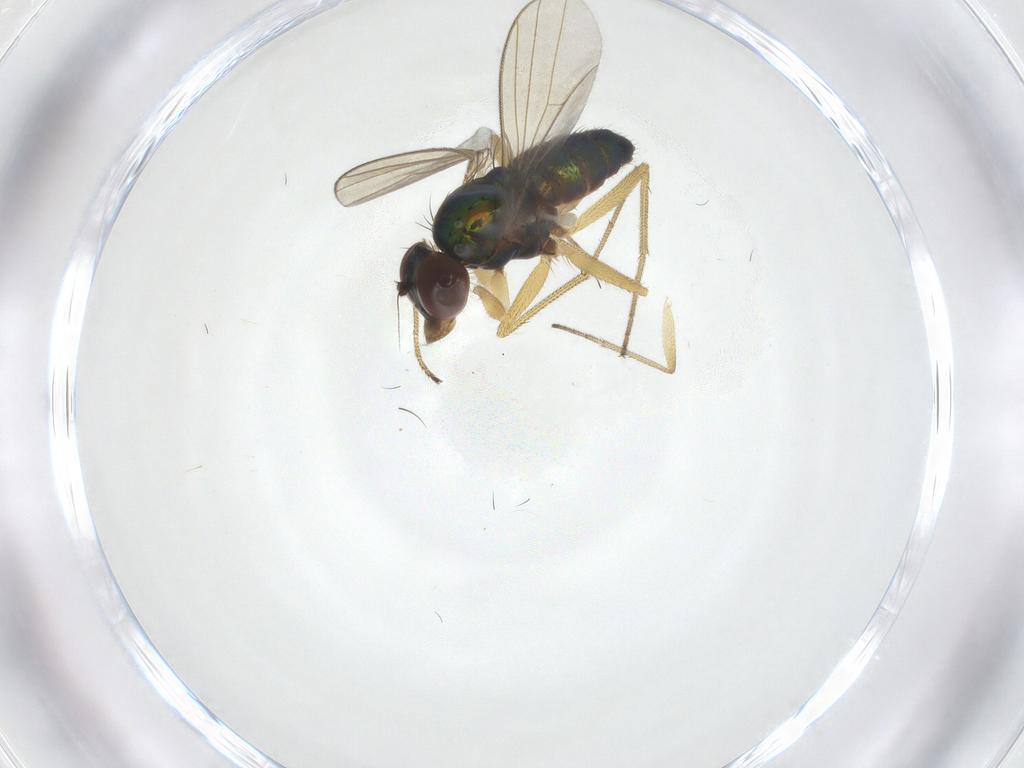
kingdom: Animalia
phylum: Arthropoda
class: Insecta
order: Diptera
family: Dolichopodidae
